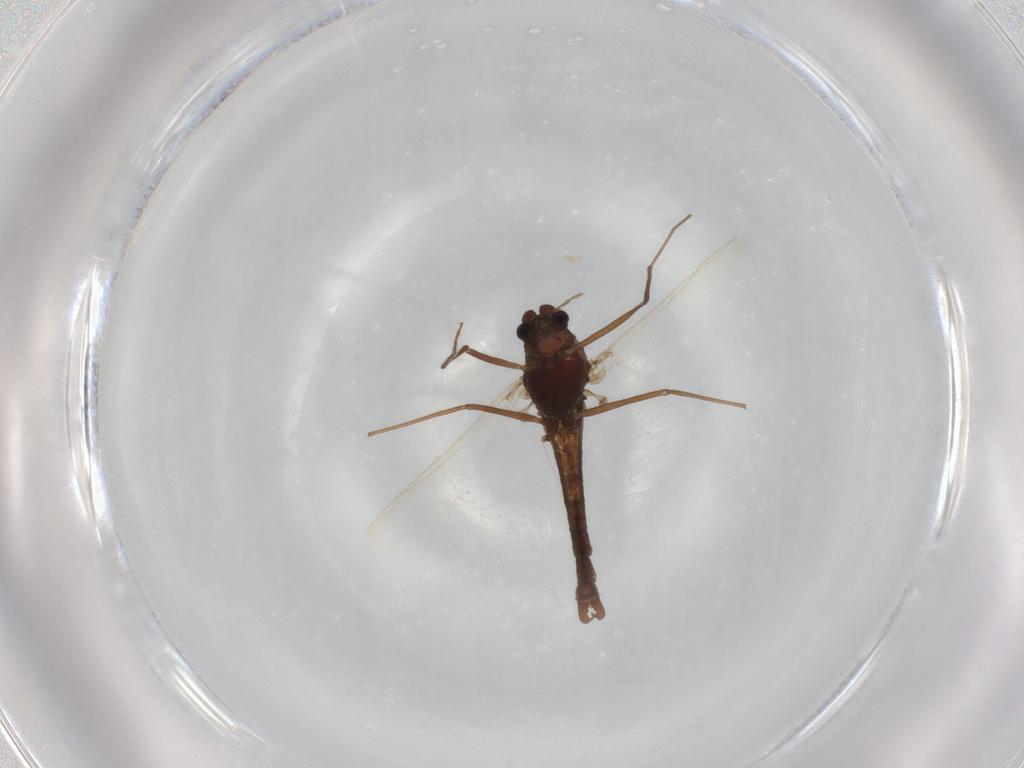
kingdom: Animalia
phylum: Arthropoda
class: Insecta
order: Diptera
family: Chironomidae
